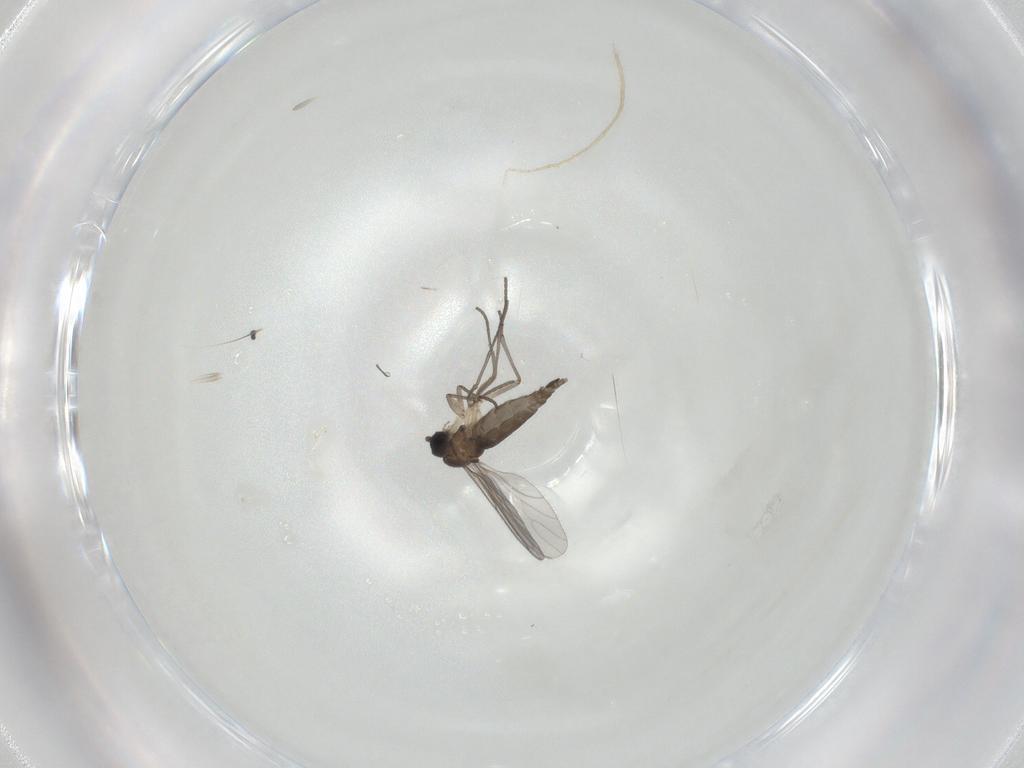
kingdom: Animalia
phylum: Arthropoda
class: Insecta
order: Diptera
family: Sciaridae
